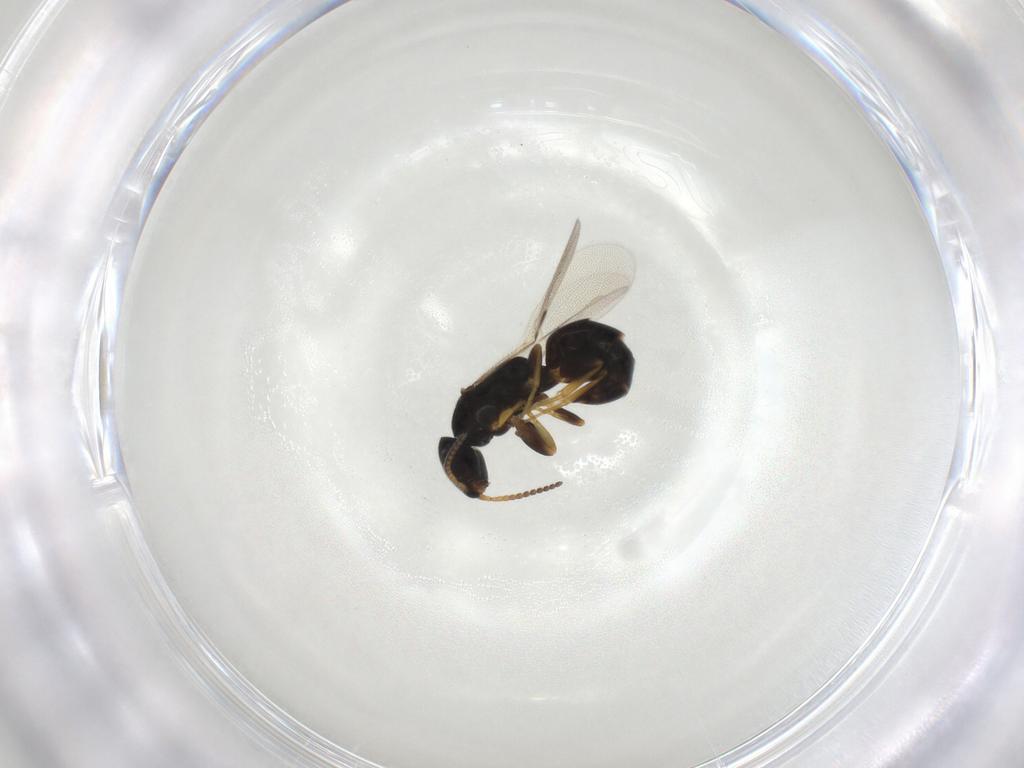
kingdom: Animalia
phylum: Arthropoda
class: Insecta
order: Hymenoptera
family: Bethylidae
